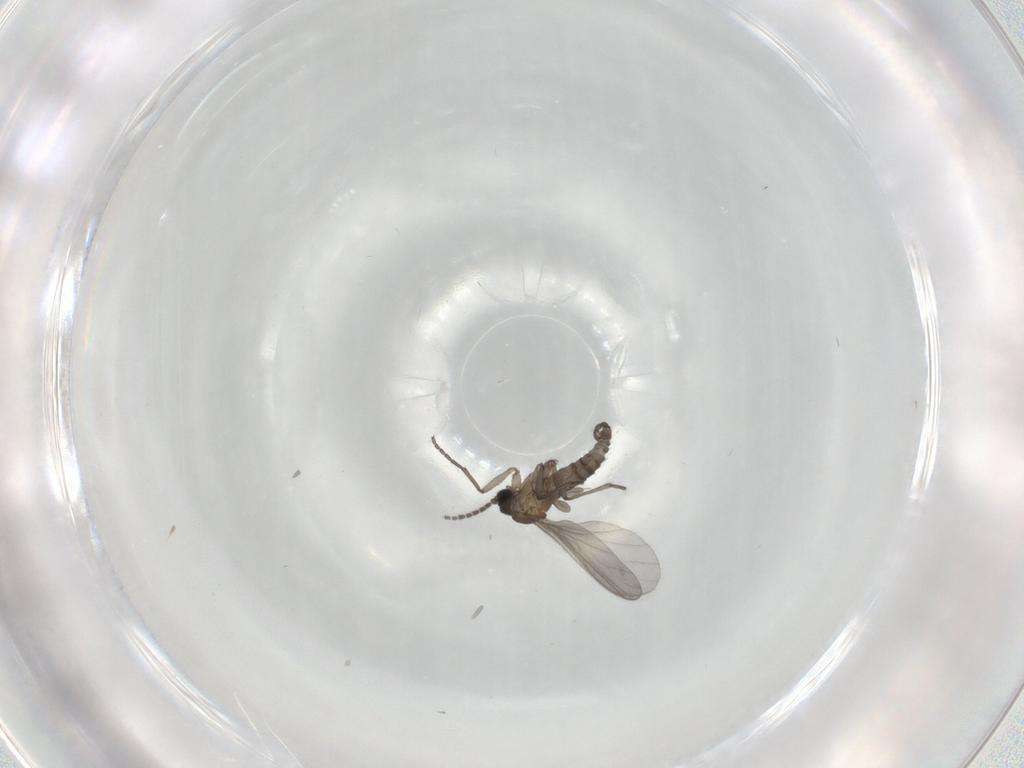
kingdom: Animalia
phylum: Arthropoda
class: Insecta
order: Diptera
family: Sciaridae
